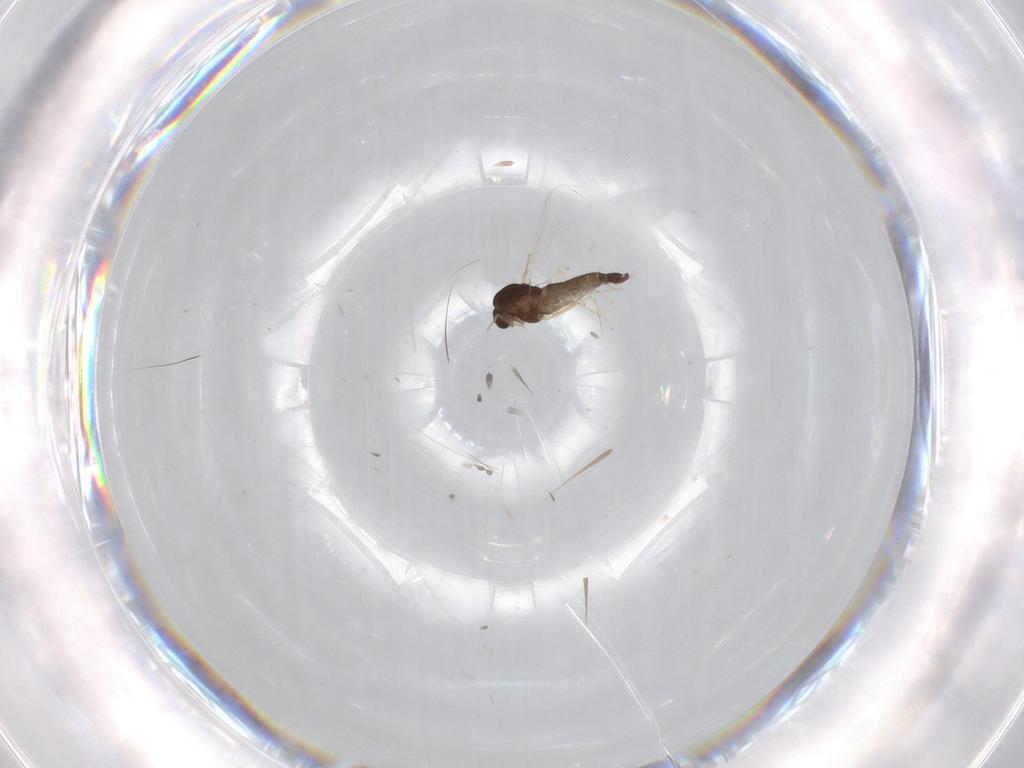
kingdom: Animalia
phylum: Arthropoda
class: Insecta
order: Diptera
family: Chironomidae
